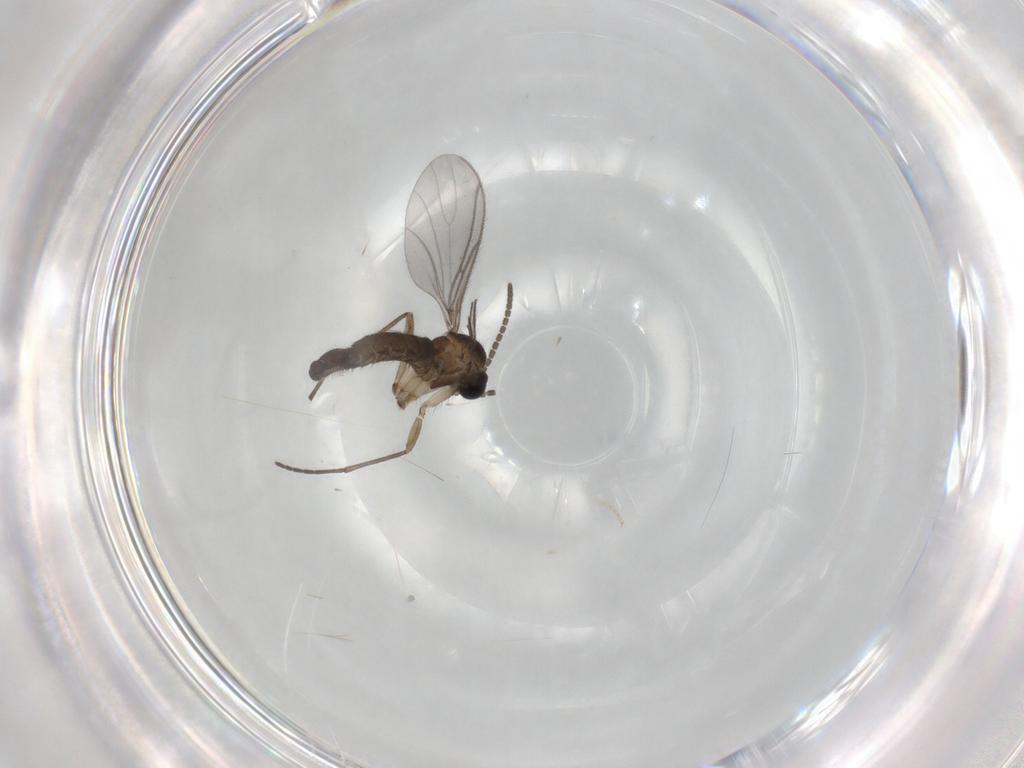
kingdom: Animalia
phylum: Arthropoda
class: Insecta
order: Diptera
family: Sciaridae
